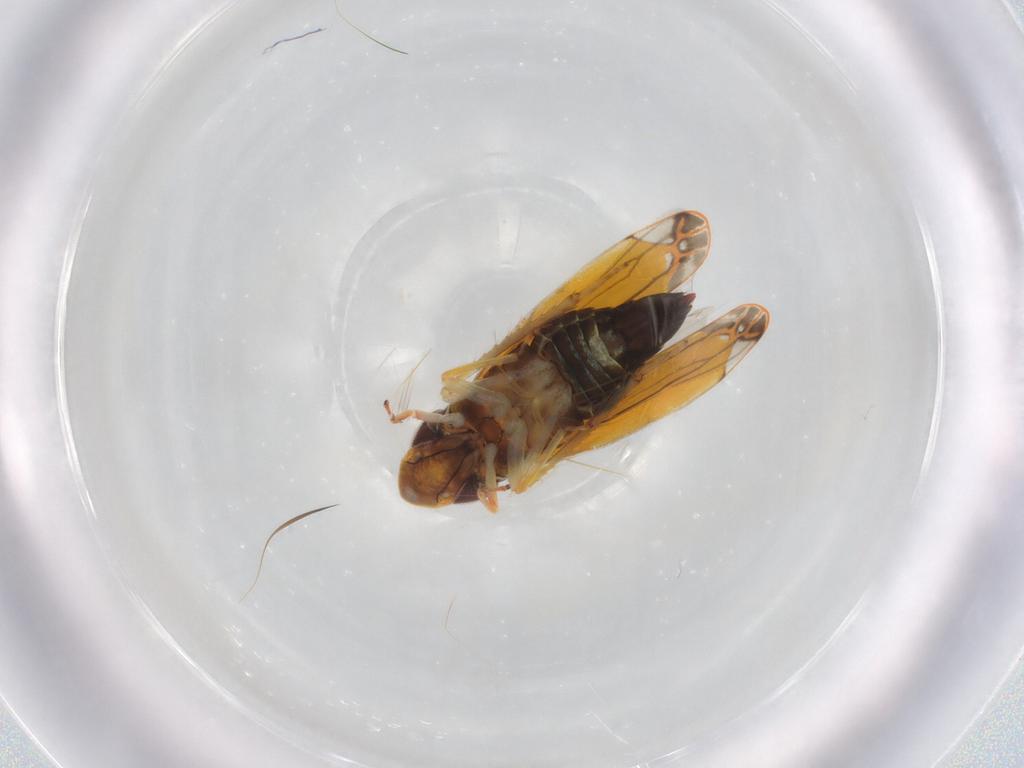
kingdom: Animalia
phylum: Arthropoda
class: Insecta
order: Hemiptera
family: Cicadellidae
